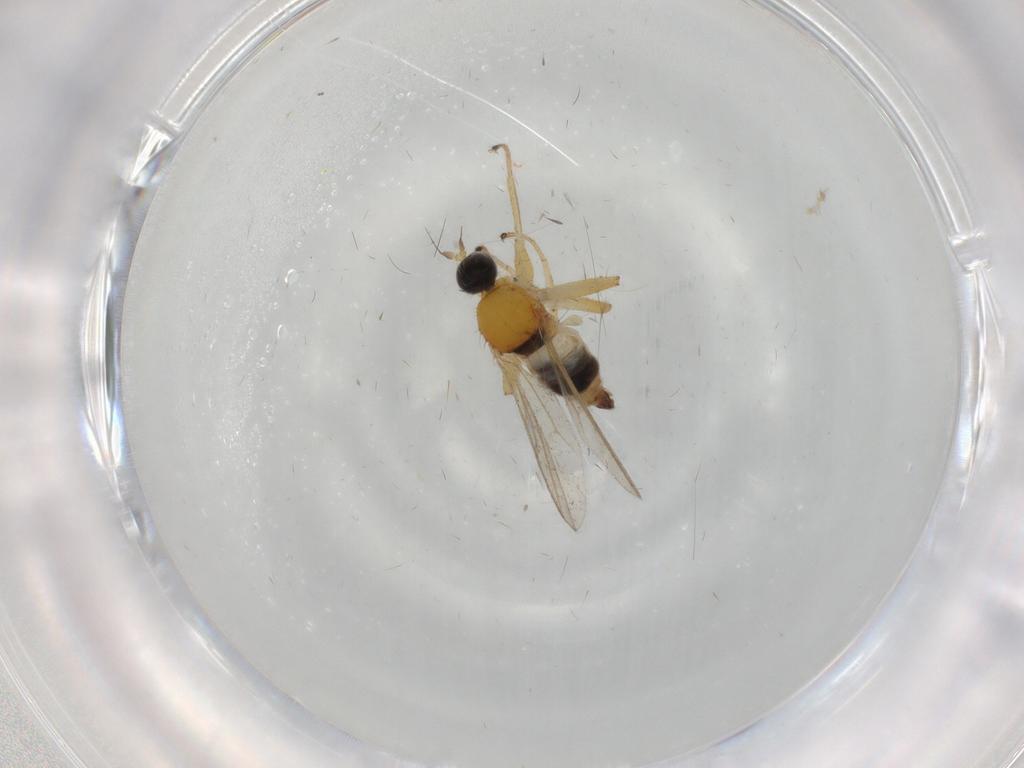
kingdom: Animalia
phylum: Arthropoda
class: Insecta
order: Diptera
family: Hybotidae
